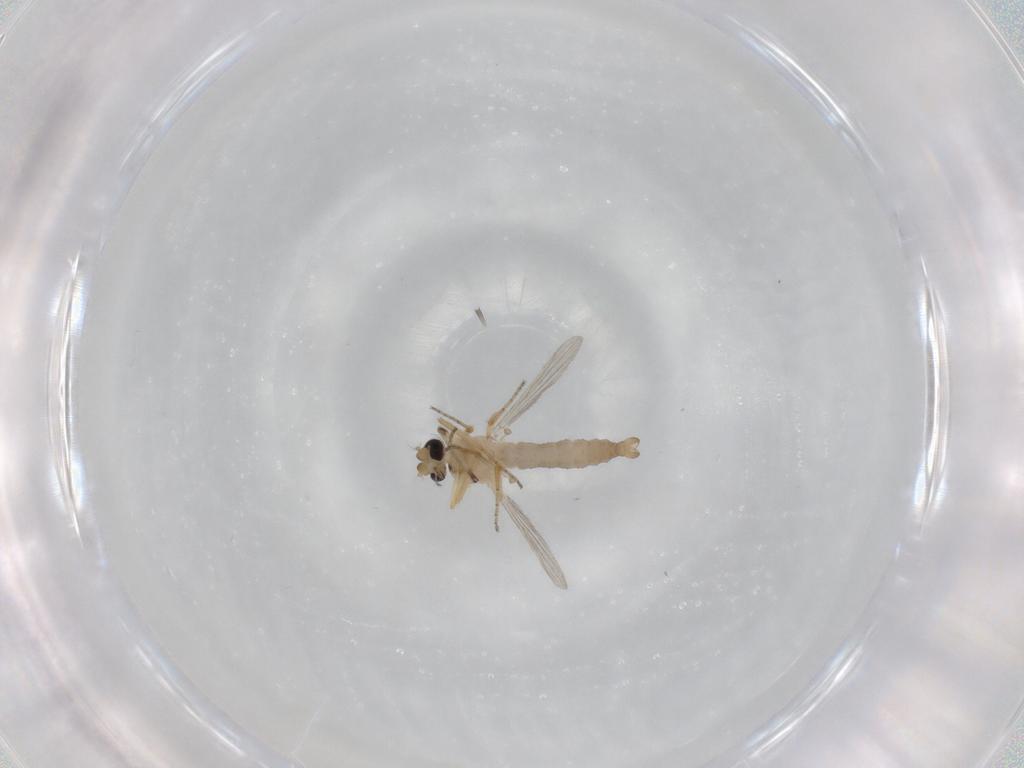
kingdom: Animalia
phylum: Arthropoda
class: Insecta
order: Diptera
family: Ceratopogonidae
